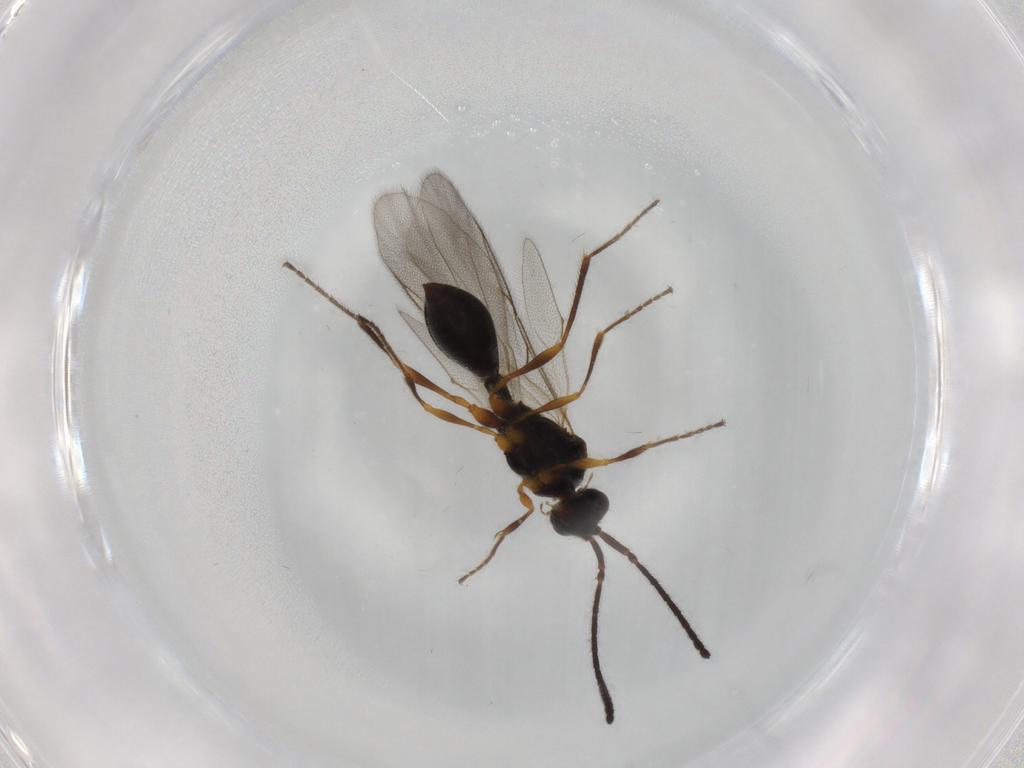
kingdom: Animalia
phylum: Arthropoda
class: Insecta
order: Hymenoptera
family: Diapriidae
